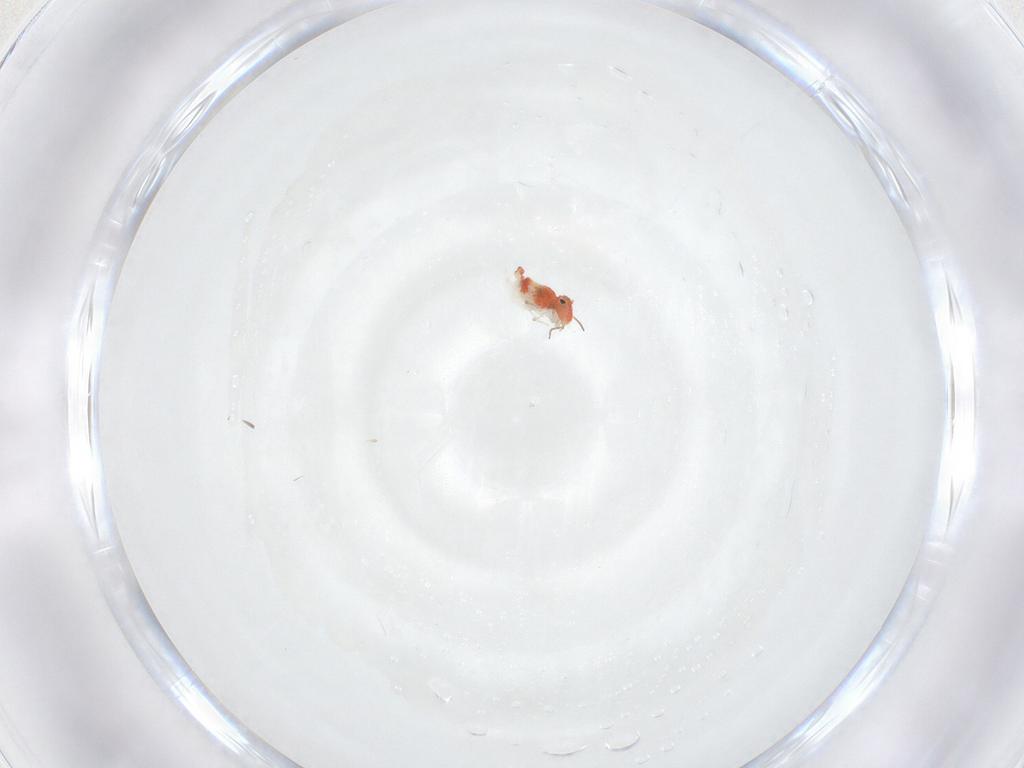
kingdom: Animalia
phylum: Arthropoda
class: Collembola
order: Symphypleona
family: Bourletiellidae
